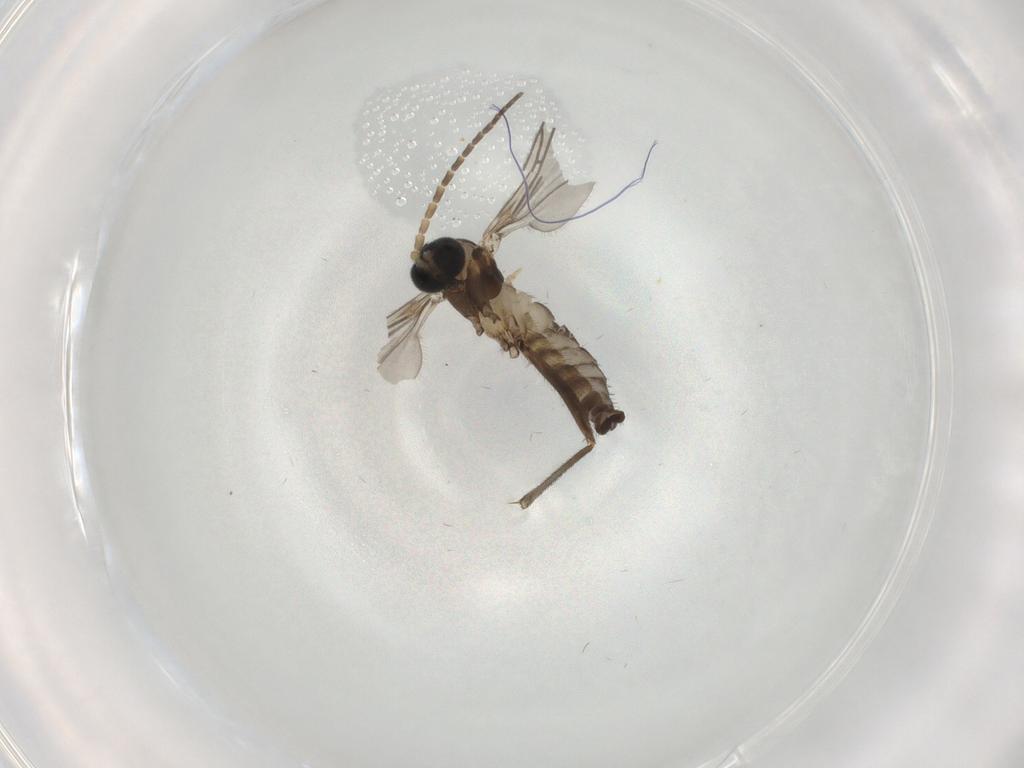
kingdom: Animalia
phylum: Arthropoda
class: Insecta
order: Diptera
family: Sciaridae
